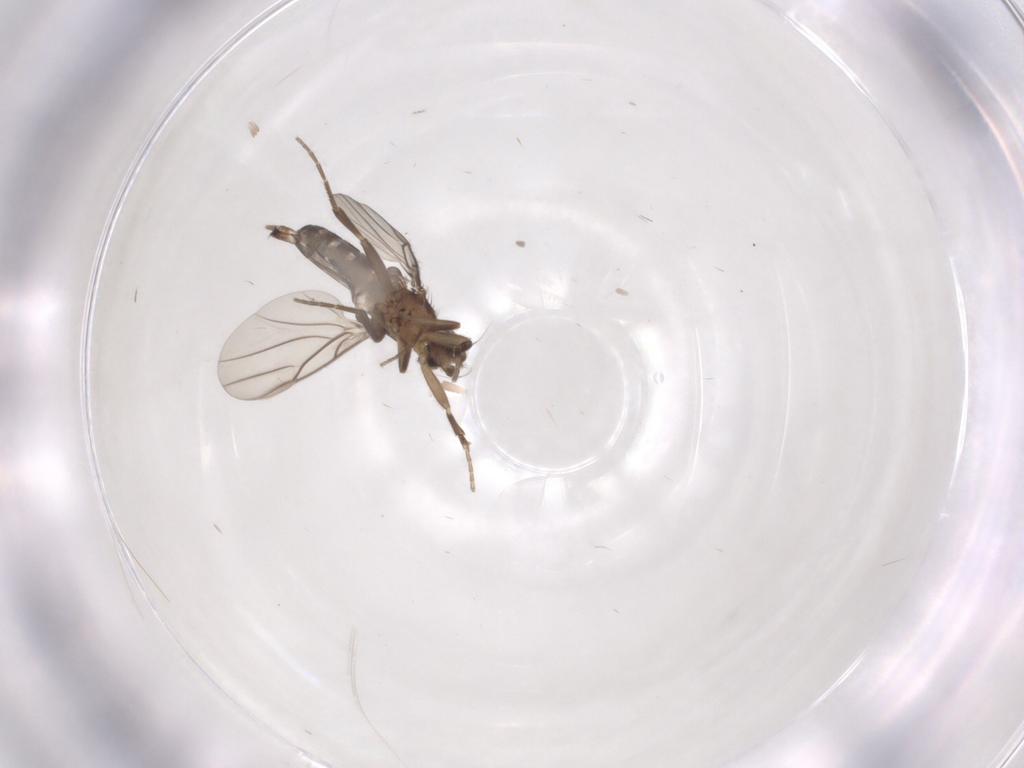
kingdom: Animalia
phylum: Arthropoda
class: Insecta
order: Diptera
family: Phoridae
